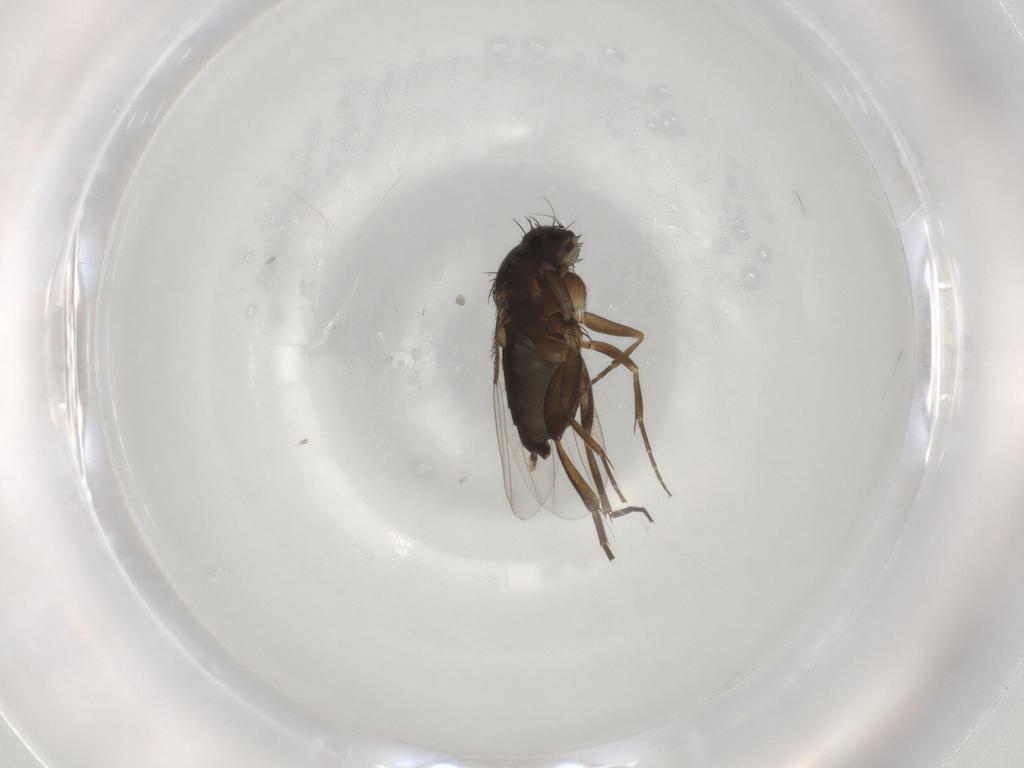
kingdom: Animalia
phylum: Arthropoda
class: Insecta
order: Diptera
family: Phoridae
